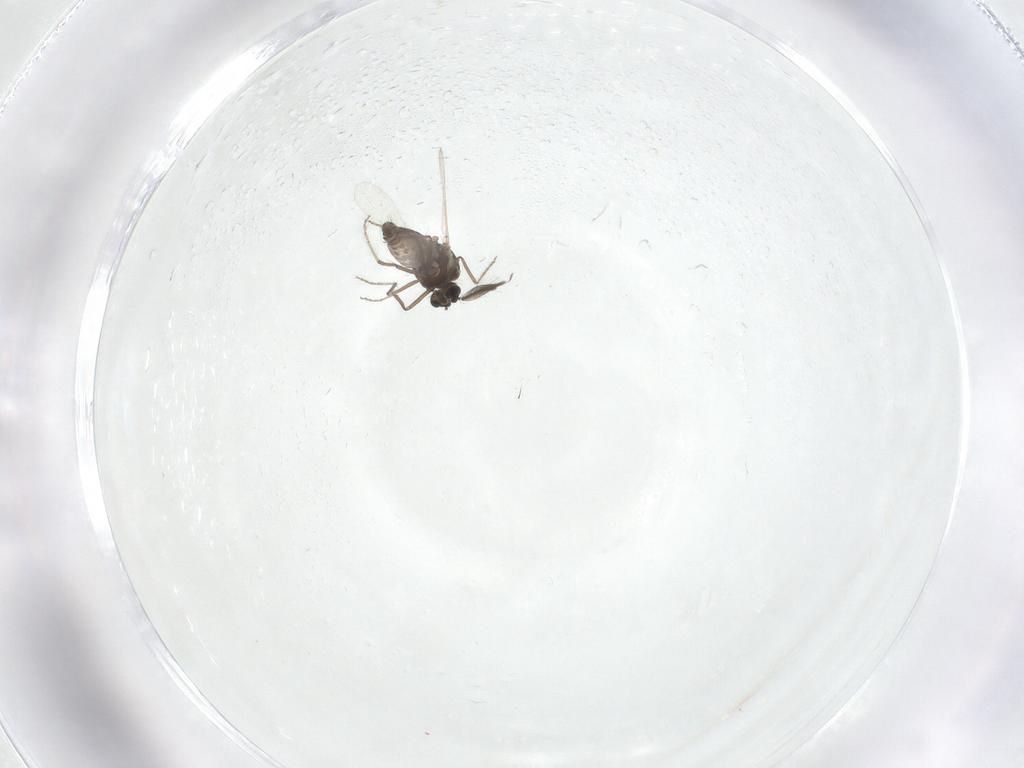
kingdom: Animalia
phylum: Arthropoda
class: Insecta
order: Diptera
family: Ceratopogonidae
